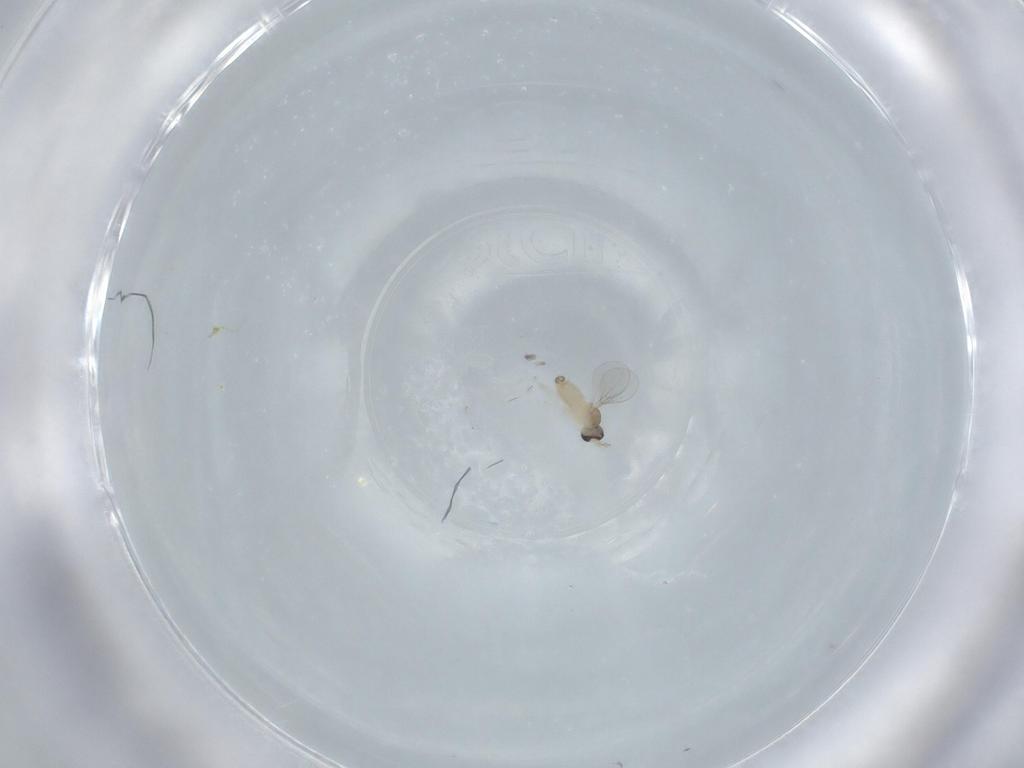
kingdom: Animalia
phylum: Arthropoda
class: Insecta
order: Diptera
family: Cecidomyiidae
